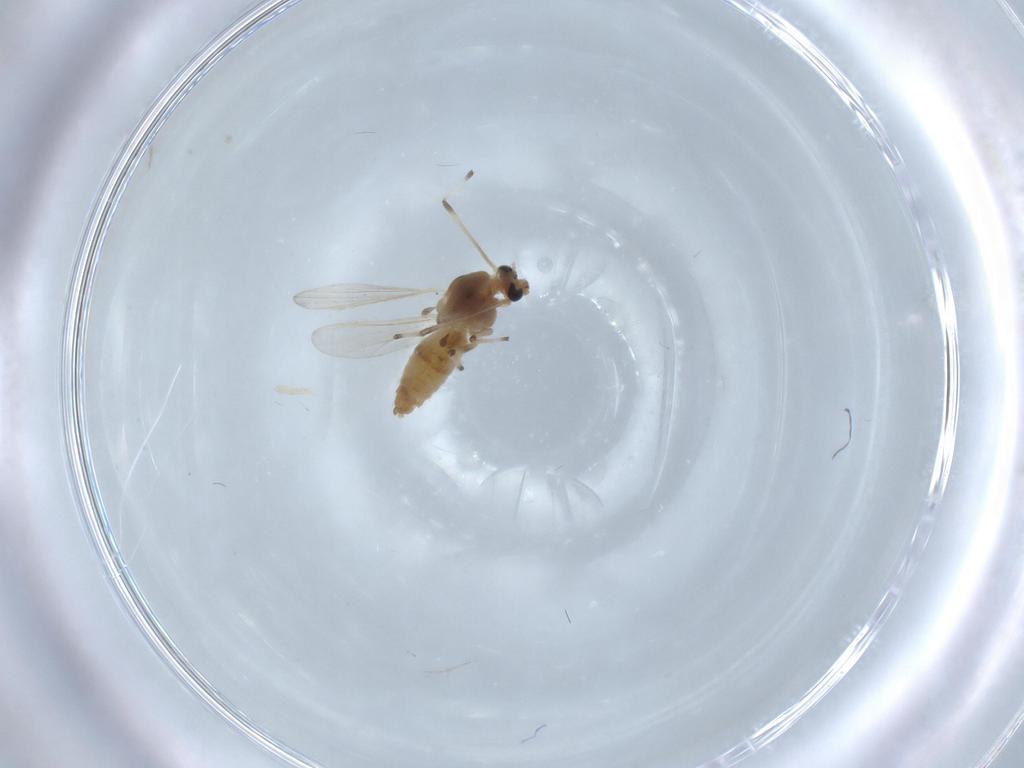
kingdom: Animalia
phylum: Arthropoda
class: Insecta
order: Diptera
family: Chironomidae
